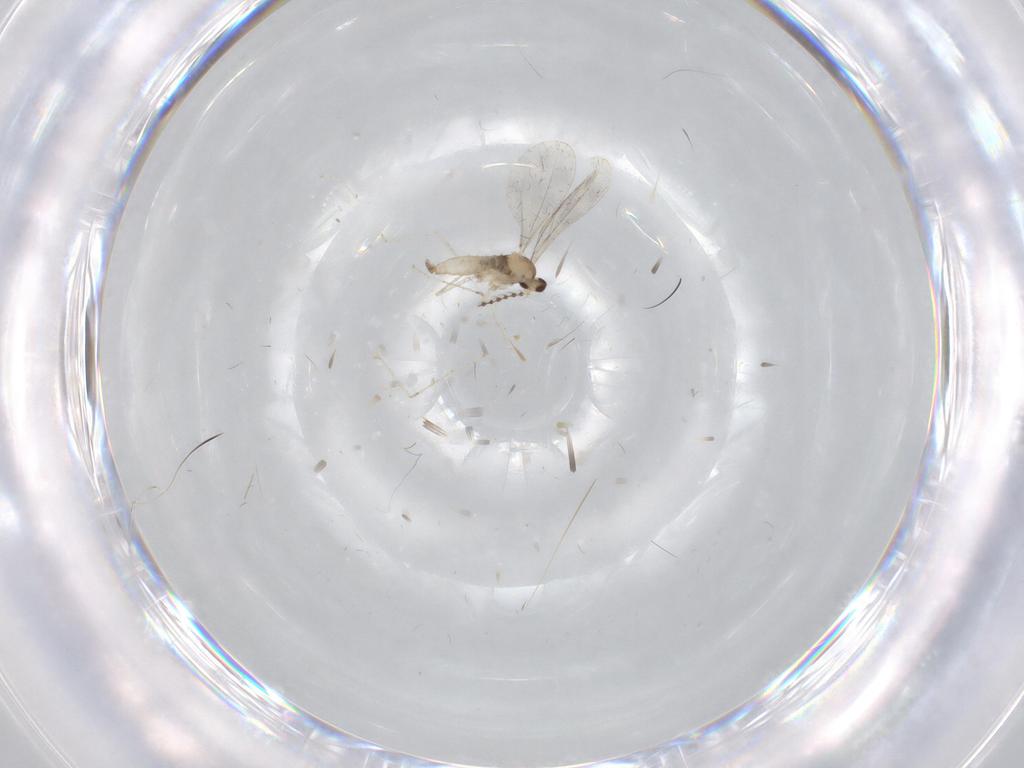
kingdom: Animalia
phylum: Arthropoda
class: Insecta
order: Diptera
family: Cecidomyiidae
